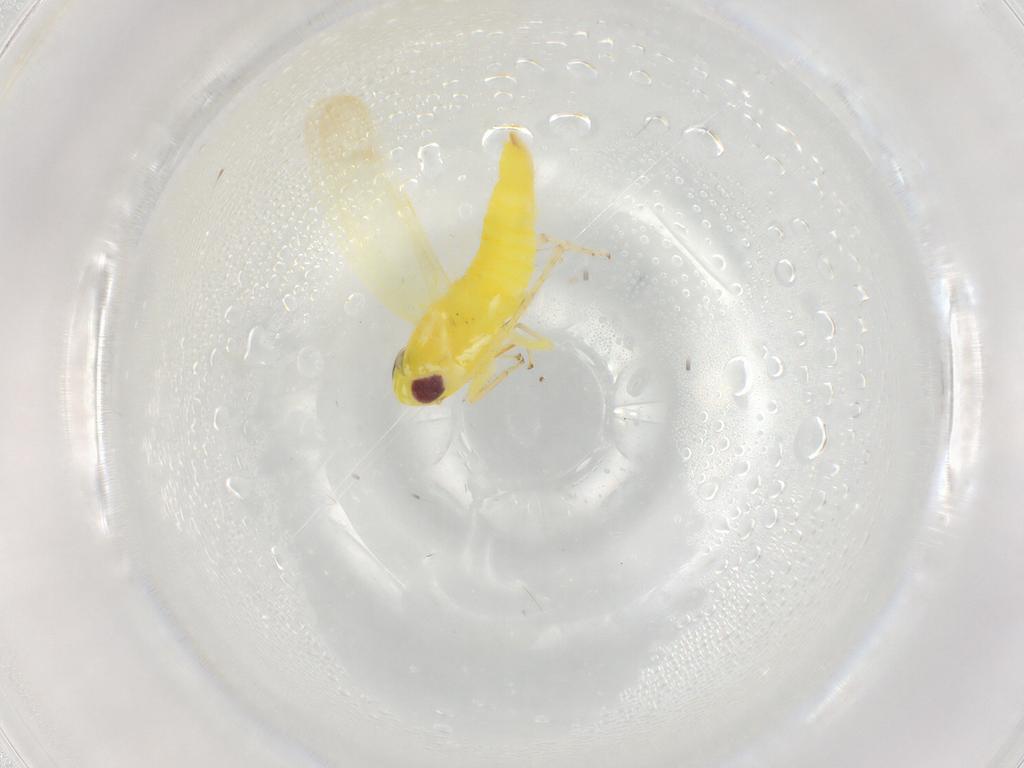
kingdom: Animalia
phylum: Arthropoda
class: Insecta
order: Hemiptera
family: Cicadellidae
